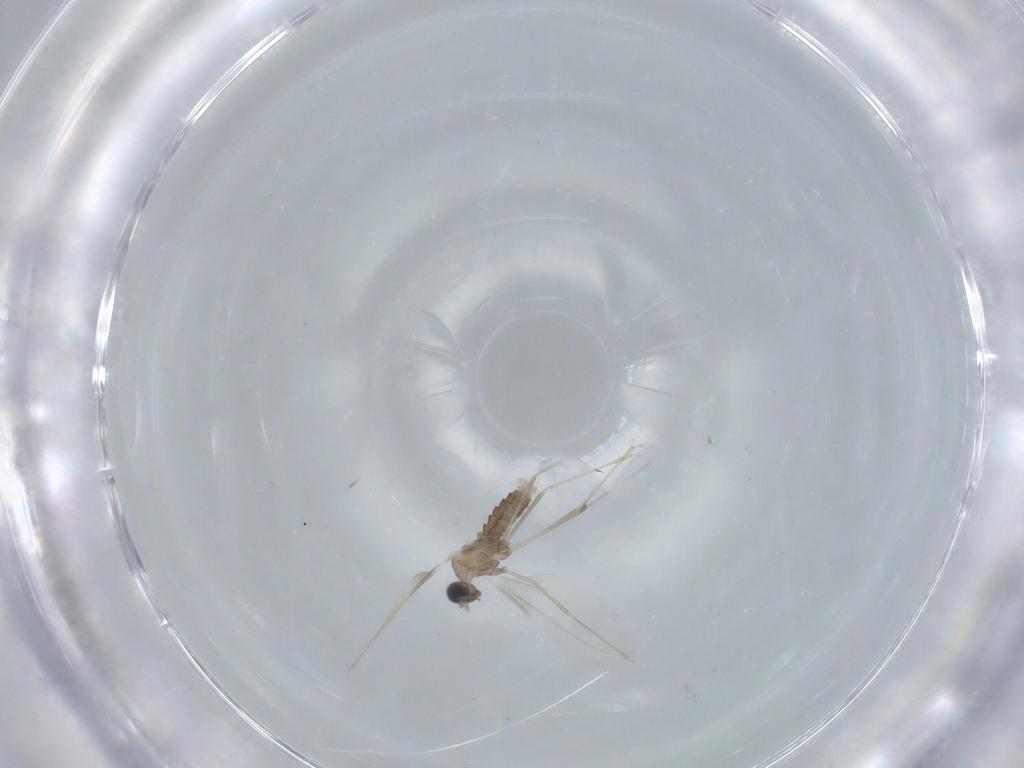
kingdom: Animalia
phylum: Arthropoda
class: Insecta
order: Diptera
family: Cecidomyiidae
